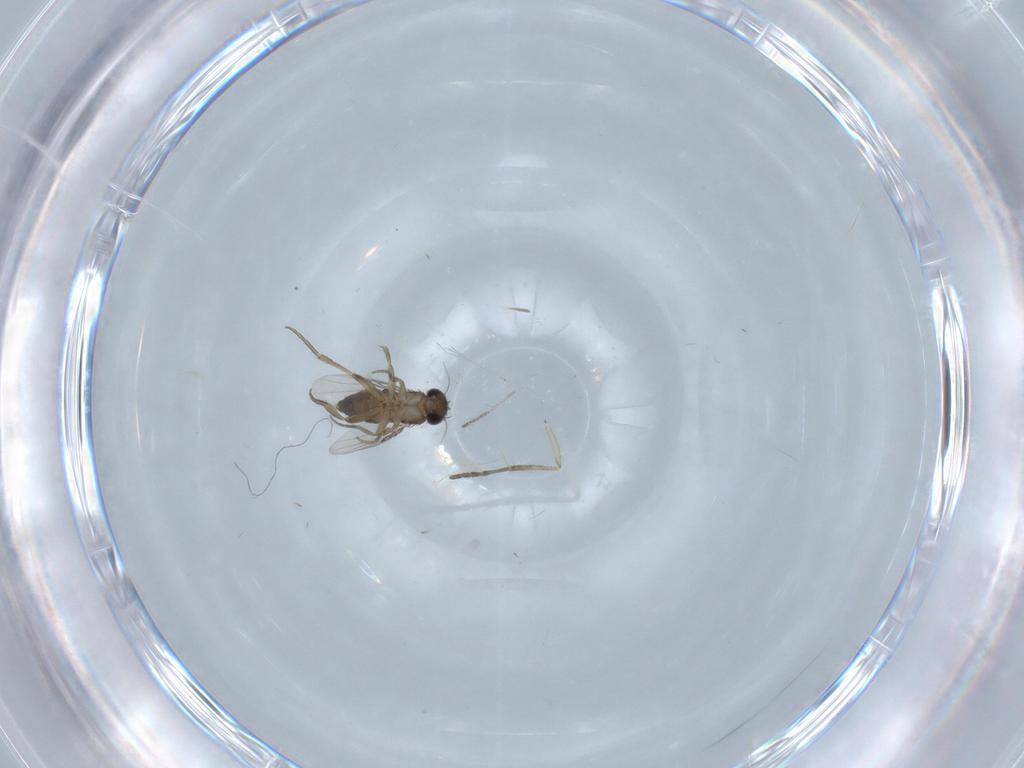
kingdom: Animalia
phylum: Arthropoda
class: Insecta
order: Diptera
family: Cecidomyiidae
